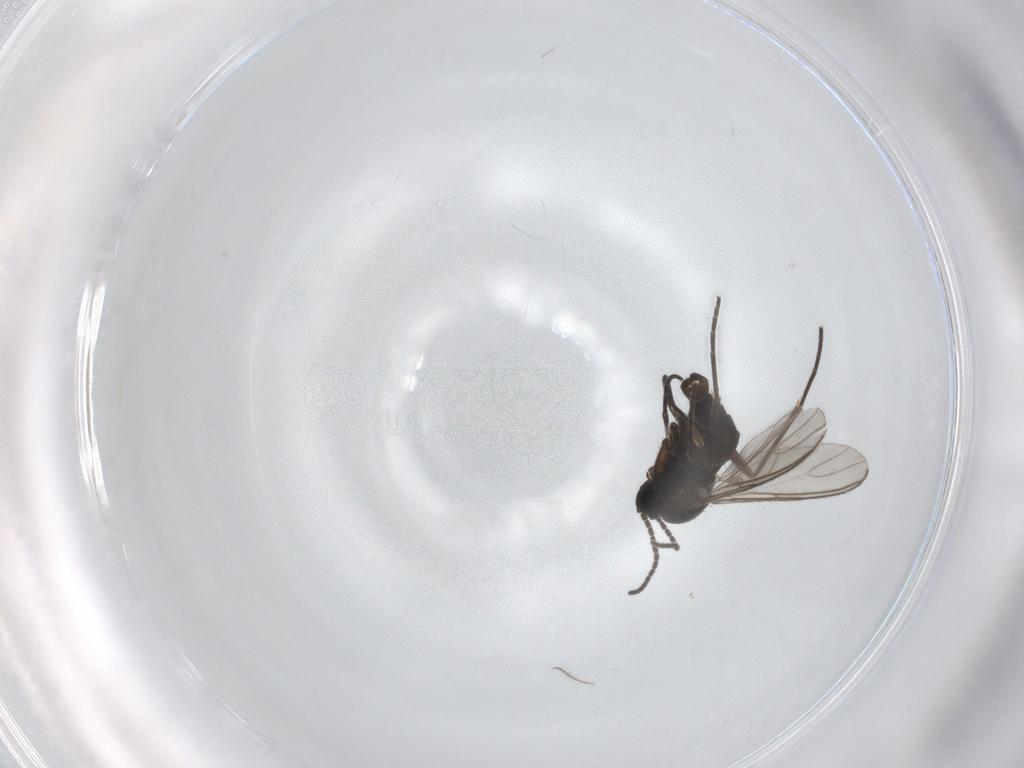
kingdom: Animalia
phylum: Arthropoda
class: Insecta
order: Diptera
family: Sciaridae
